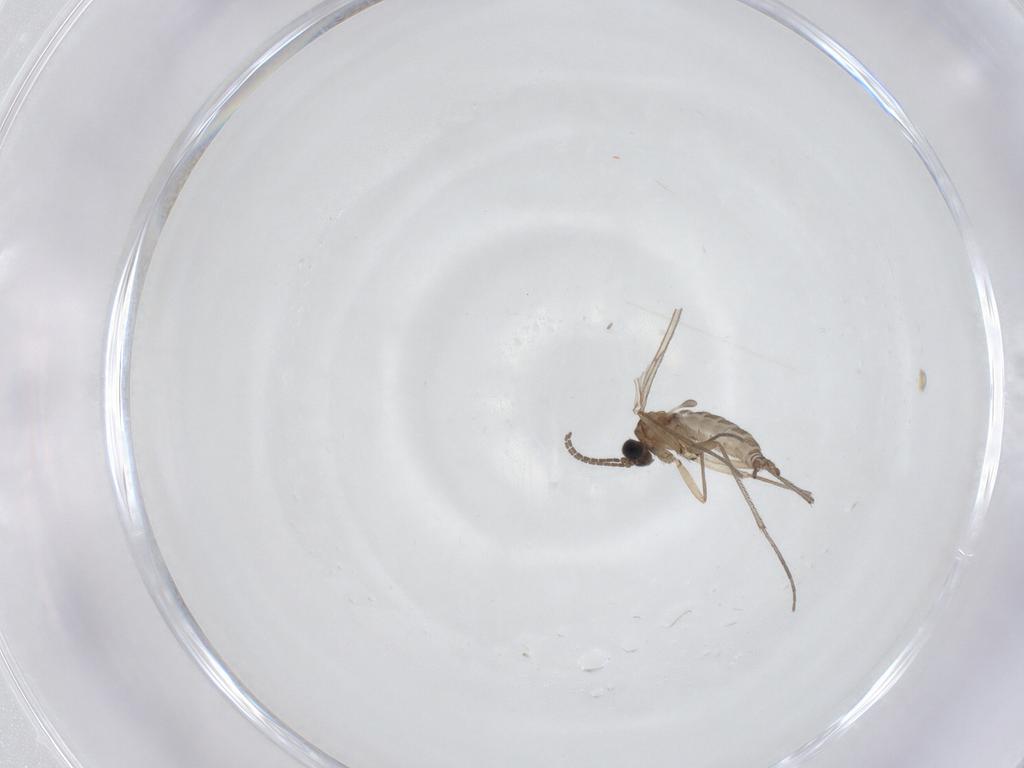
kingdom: Animalia
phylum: Arthropoda
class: Insecta
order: Diptera
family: Sciaridae
